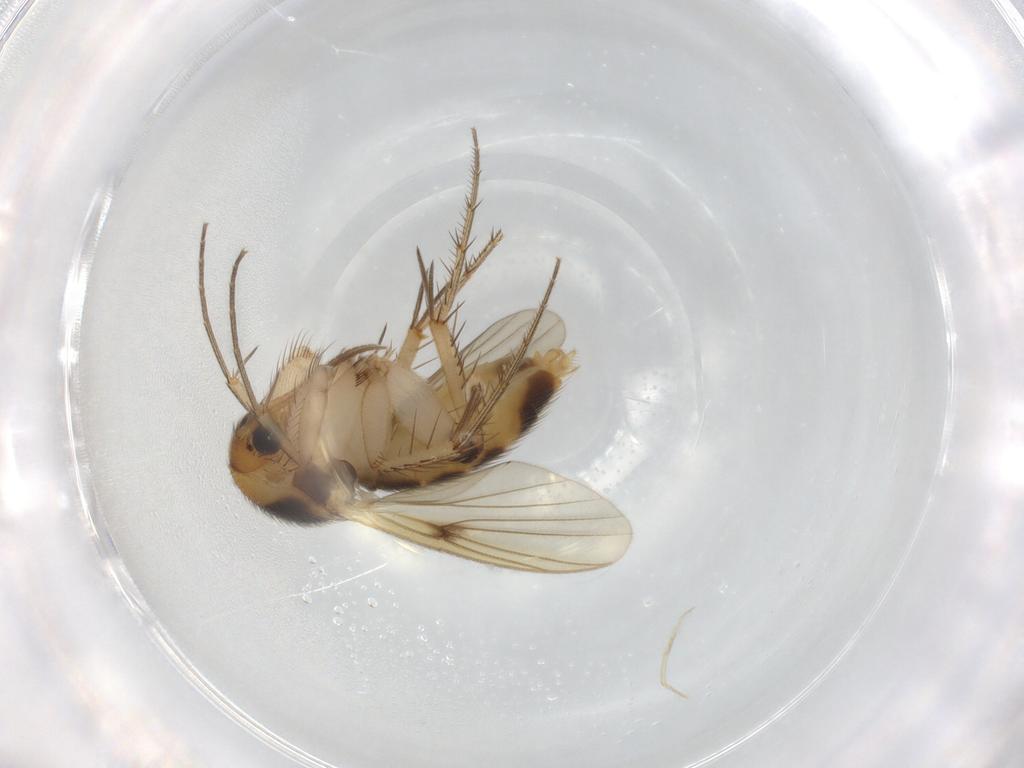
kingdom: Animalia
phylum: Arthropoda
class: Insecta
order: Diptera
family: Mycetophilidae
